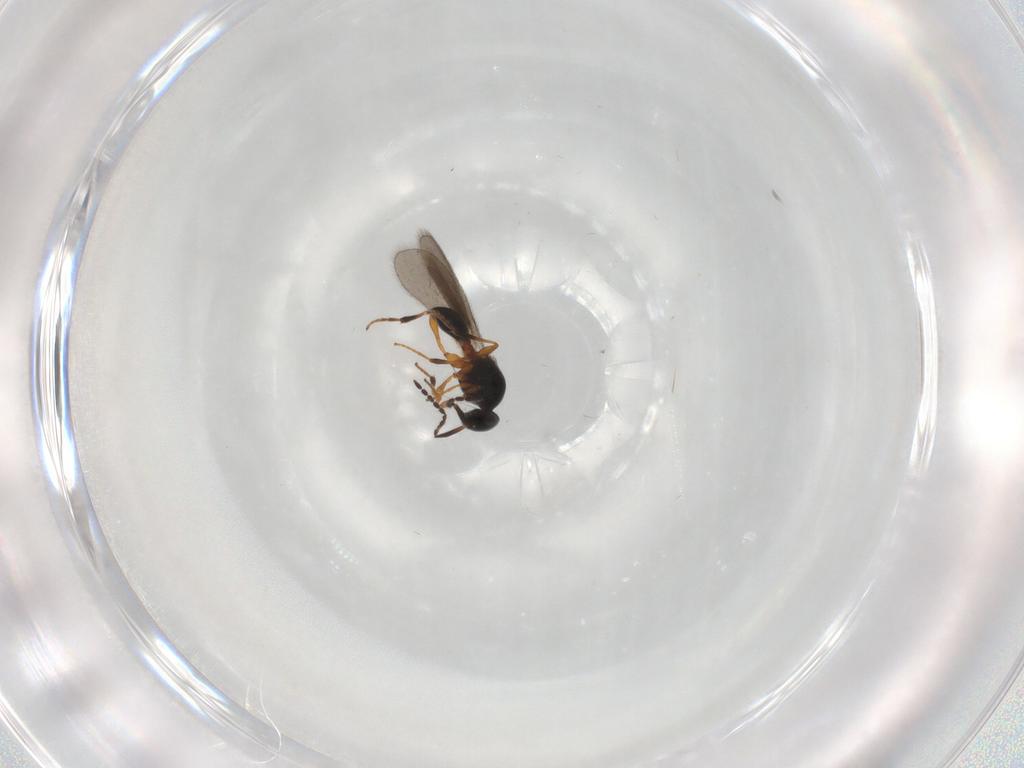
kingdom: Animalia
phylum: Arthropoda
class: Insecta
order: Hymenoptera
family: Platygastridae
